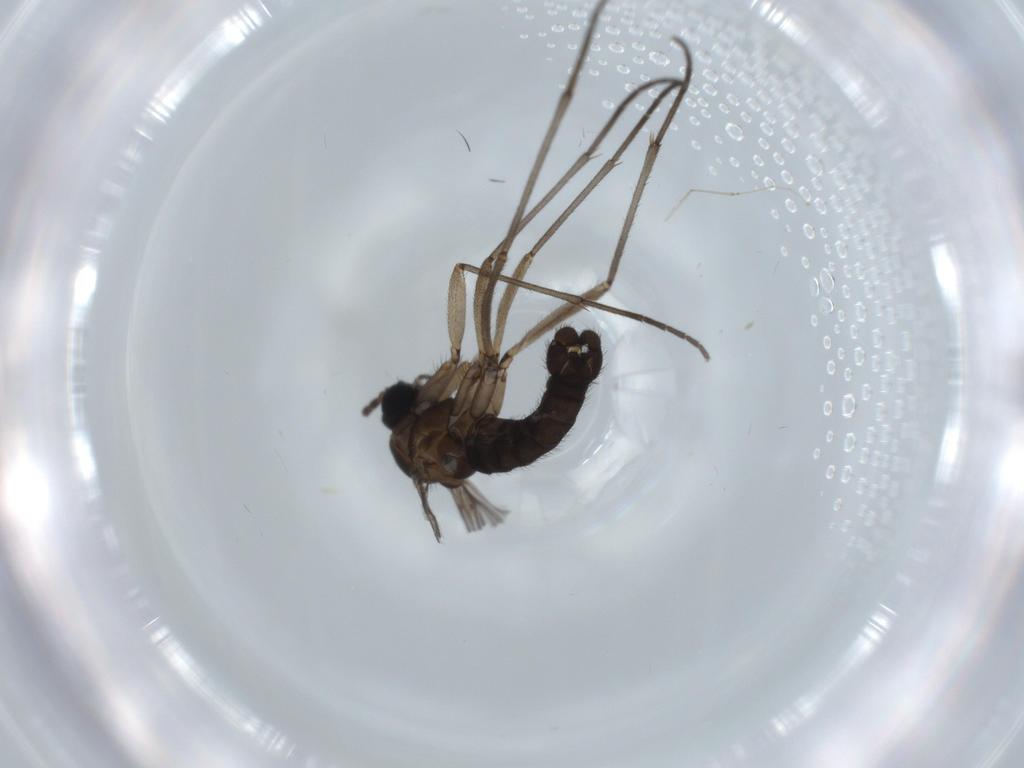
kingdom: Animalia
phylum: Arthropoda
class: Insecta
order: Diptera
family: Sciaridae
